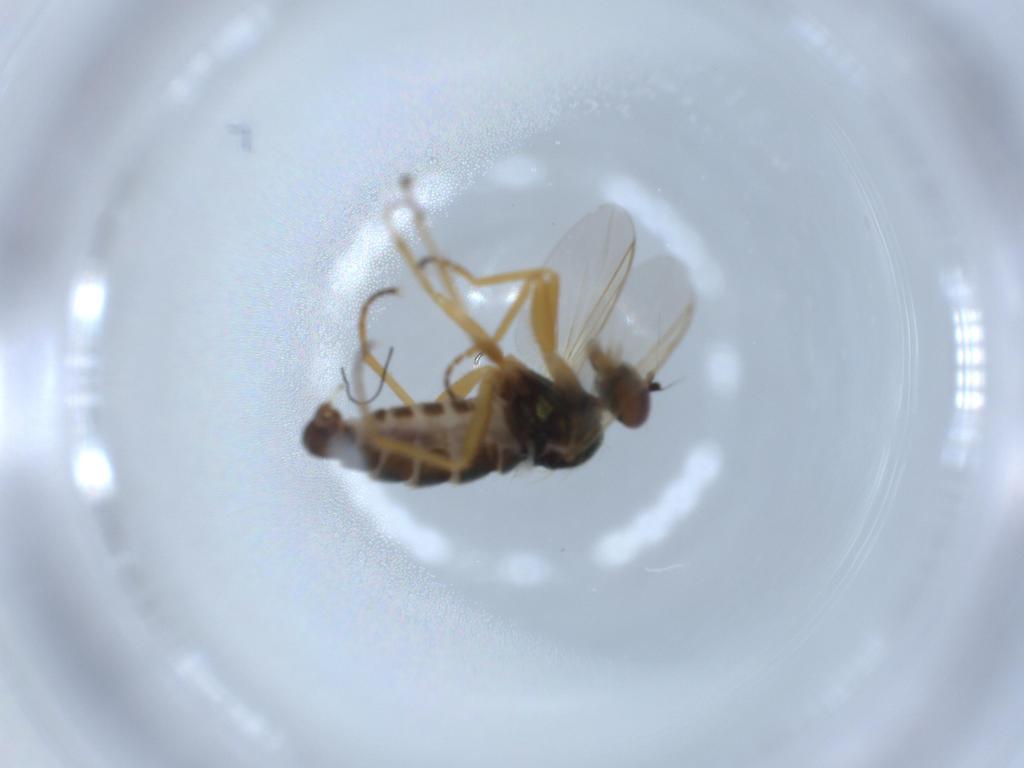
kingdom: Animalia
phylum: Arthropoda
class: Insecta
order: Diptera
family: Dolichopodidae
